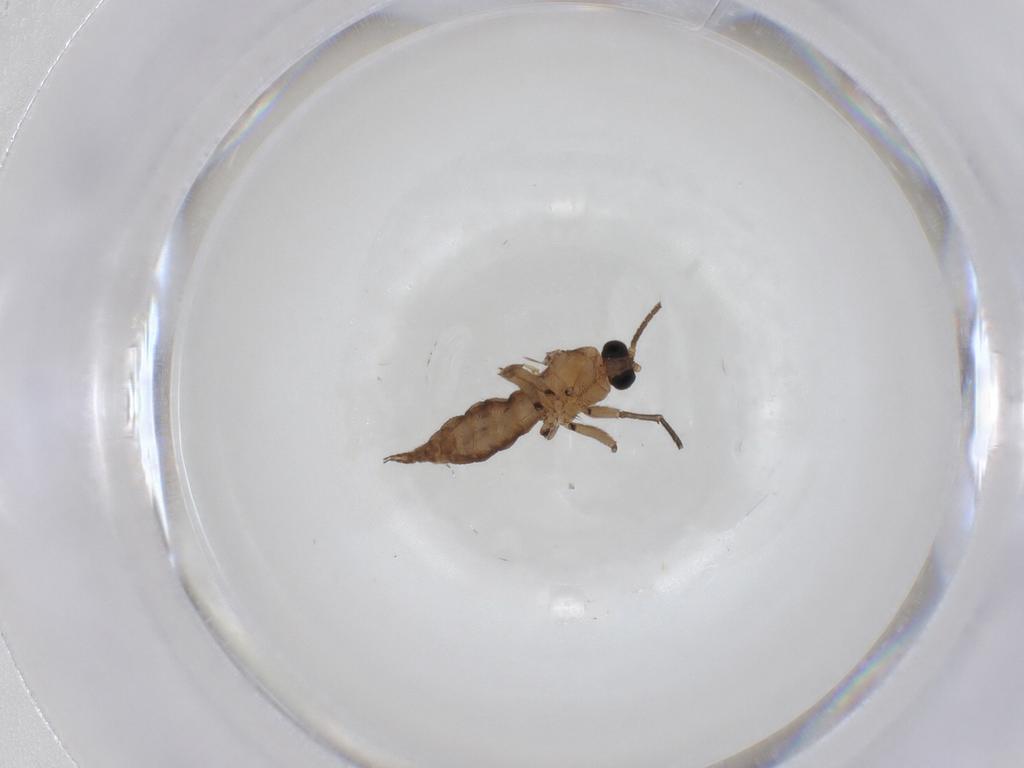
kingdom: Animalia
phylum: Arthropoda
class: Insecta
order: Diptera
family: Sciaridae
